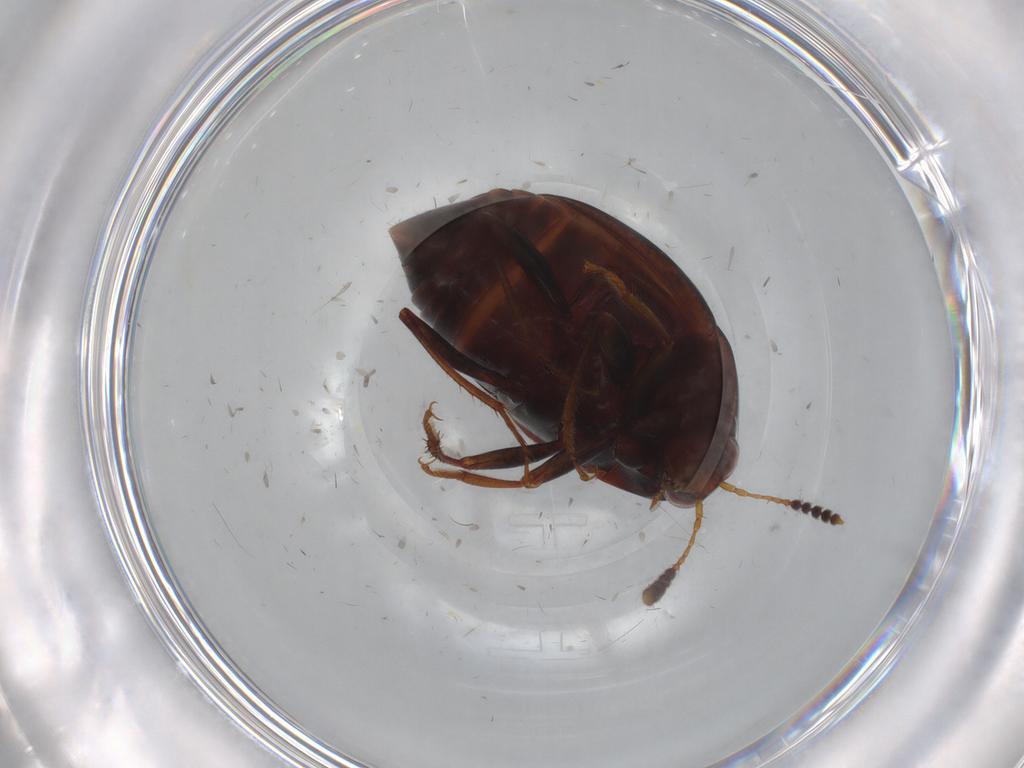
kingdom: Animalia
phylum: Arthropoda
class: Insecta
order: Coleoptera
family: Staphylinidae
